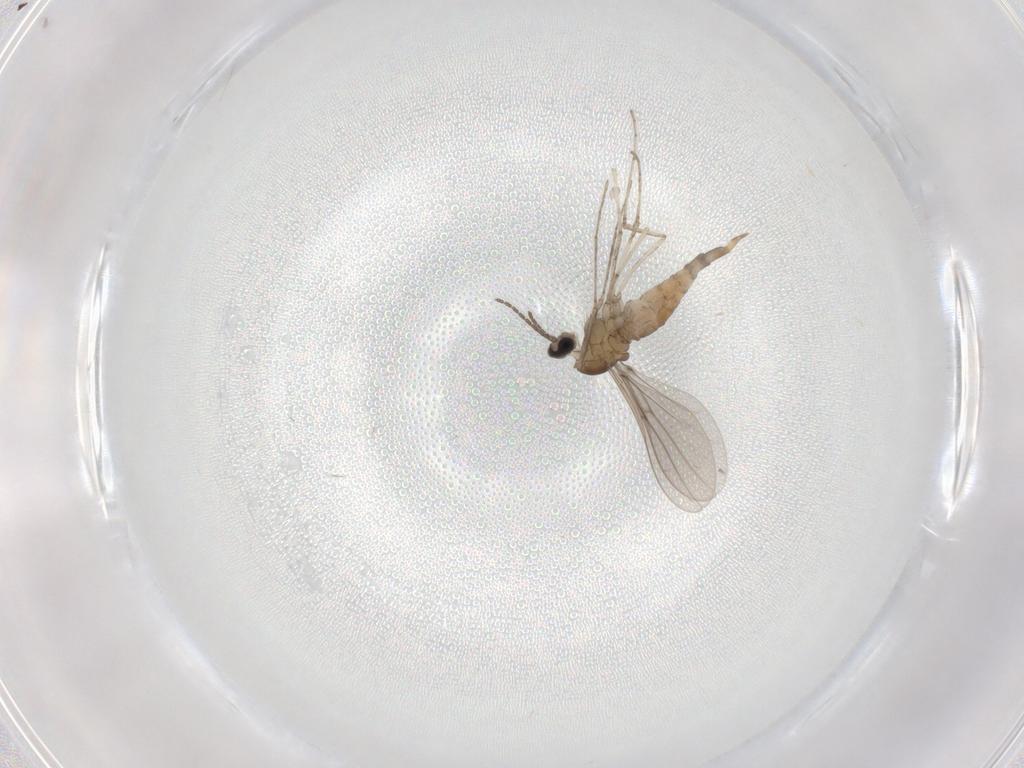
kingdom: Animalia
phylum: Arthropoda
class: Insecta
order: Diptera
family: Cecidomyiidae
